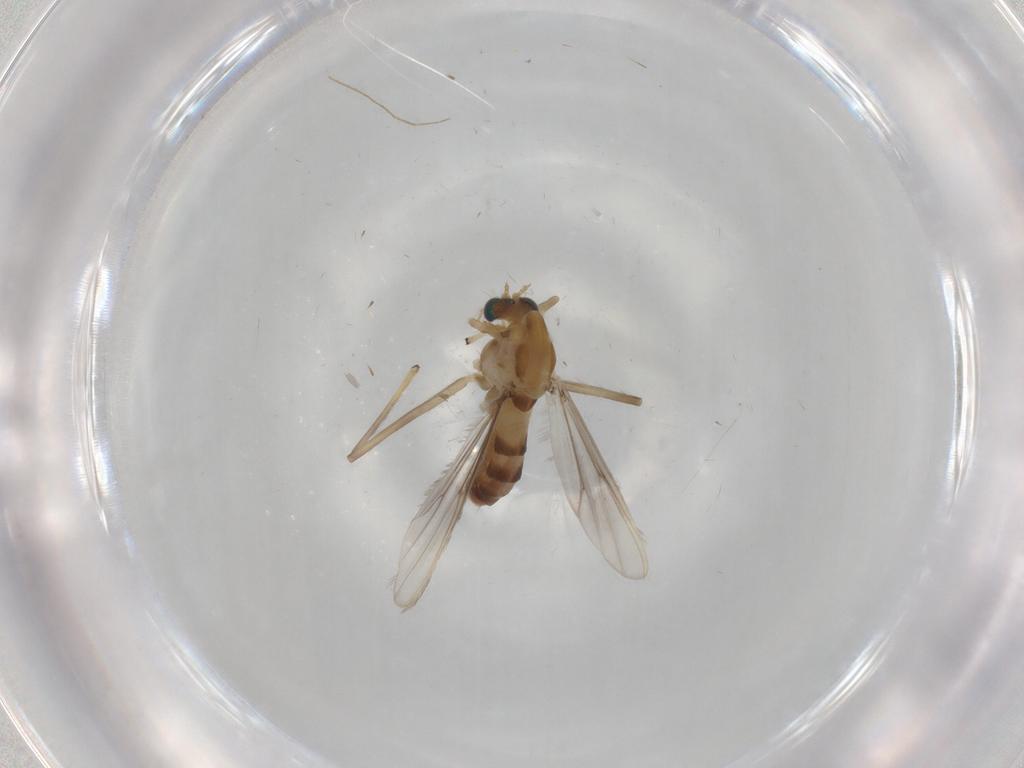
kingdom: Animalia
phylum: Arthropoda
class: Insecta
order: Diptera
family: Chironomidae
